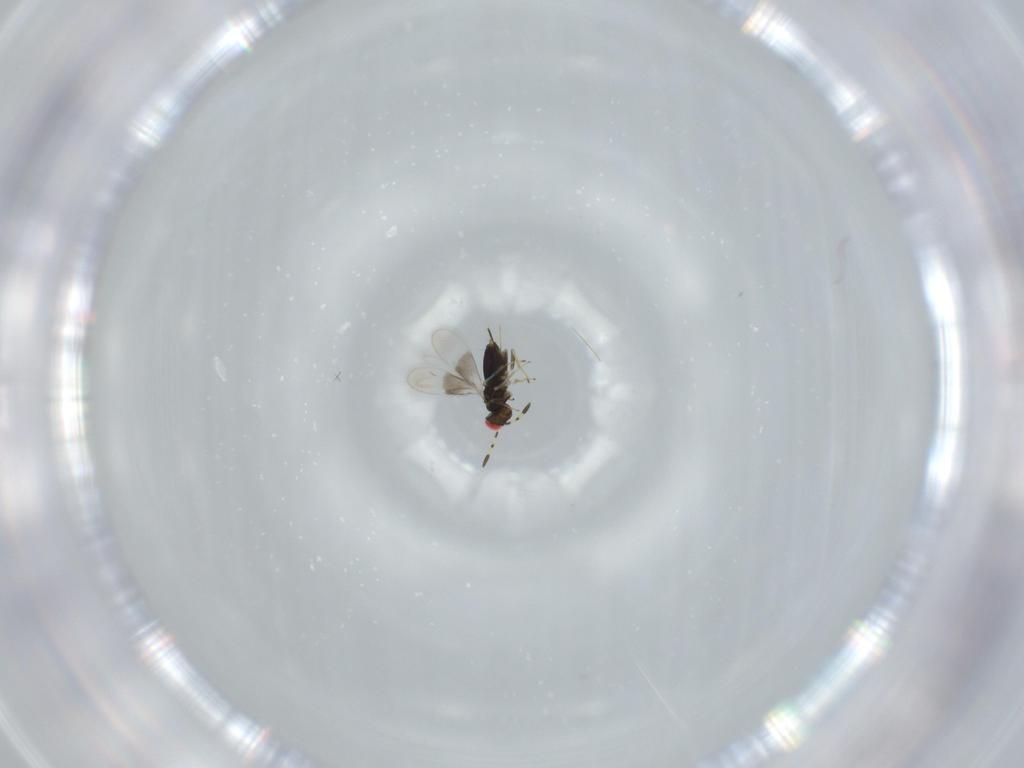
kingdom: Animalia
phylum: Arthropoda
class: Insecta
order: Hymenoptera
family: Azotidae
